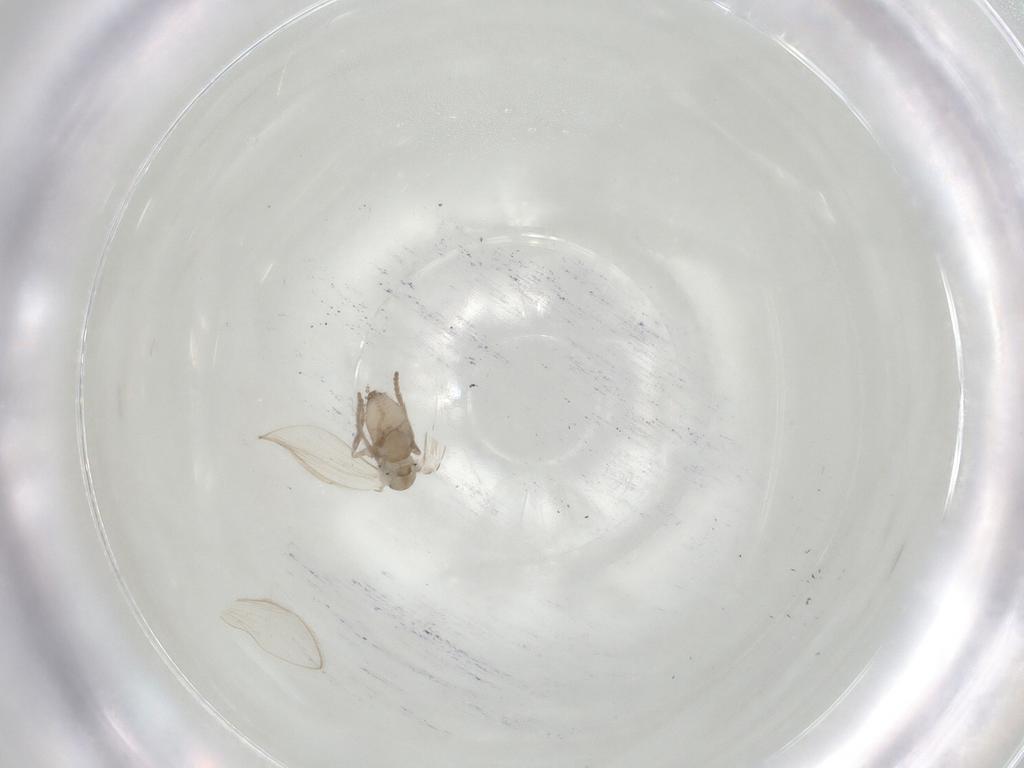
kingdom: Animalia
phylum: Arthropoda
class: Insecta
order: Diptera
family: Psychodidae
